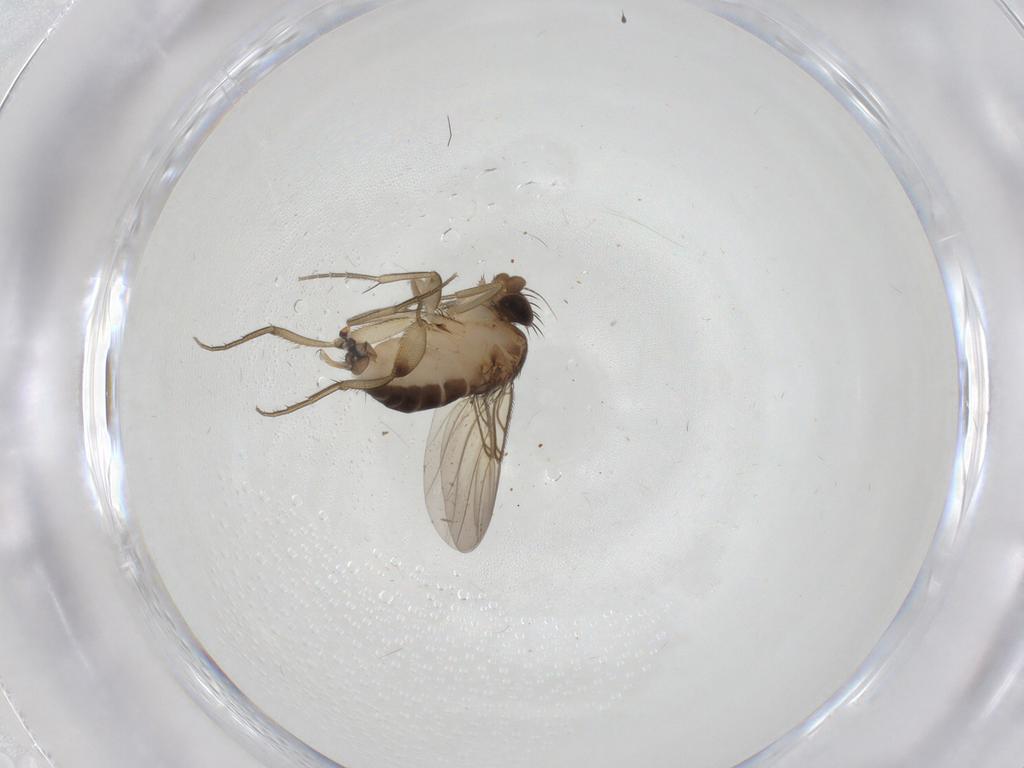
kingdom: Animalia
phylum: Arthropoda
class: Insecta
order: Diptera
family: Phoridae
